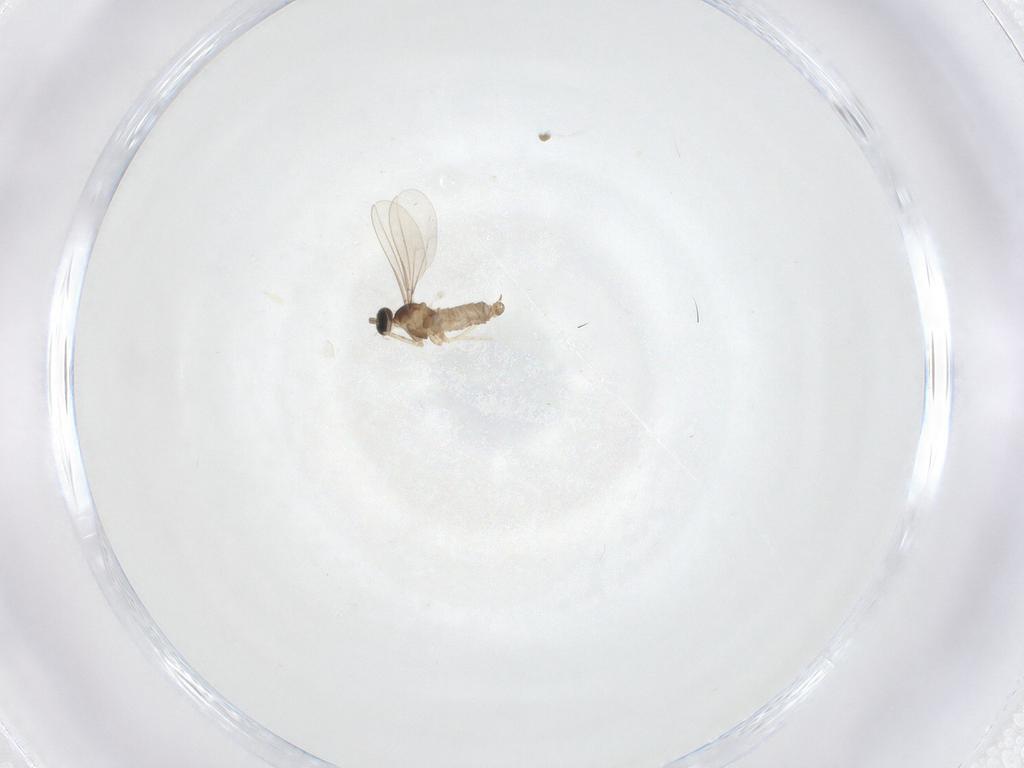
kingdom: Animalia
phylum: Arthropoda
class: Insecta
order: Diptera
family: Cecidomyiidae
